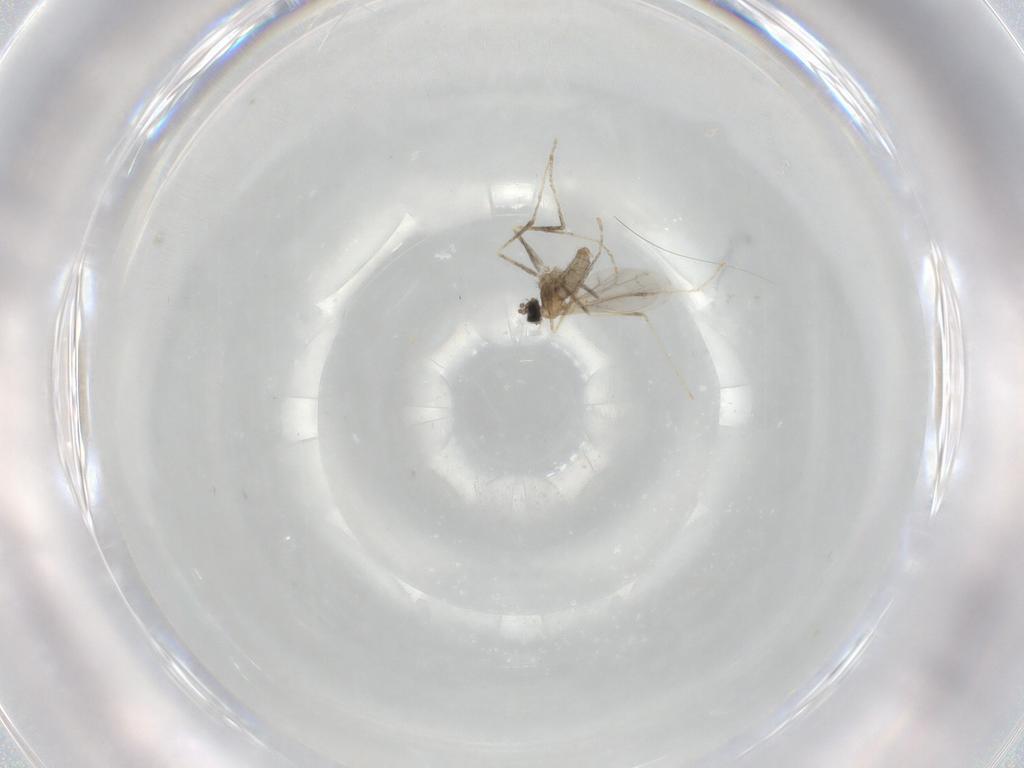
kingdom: Animalia
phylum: Arthropoda
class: Insecta
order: Diptera
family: Cecidomyiidae
